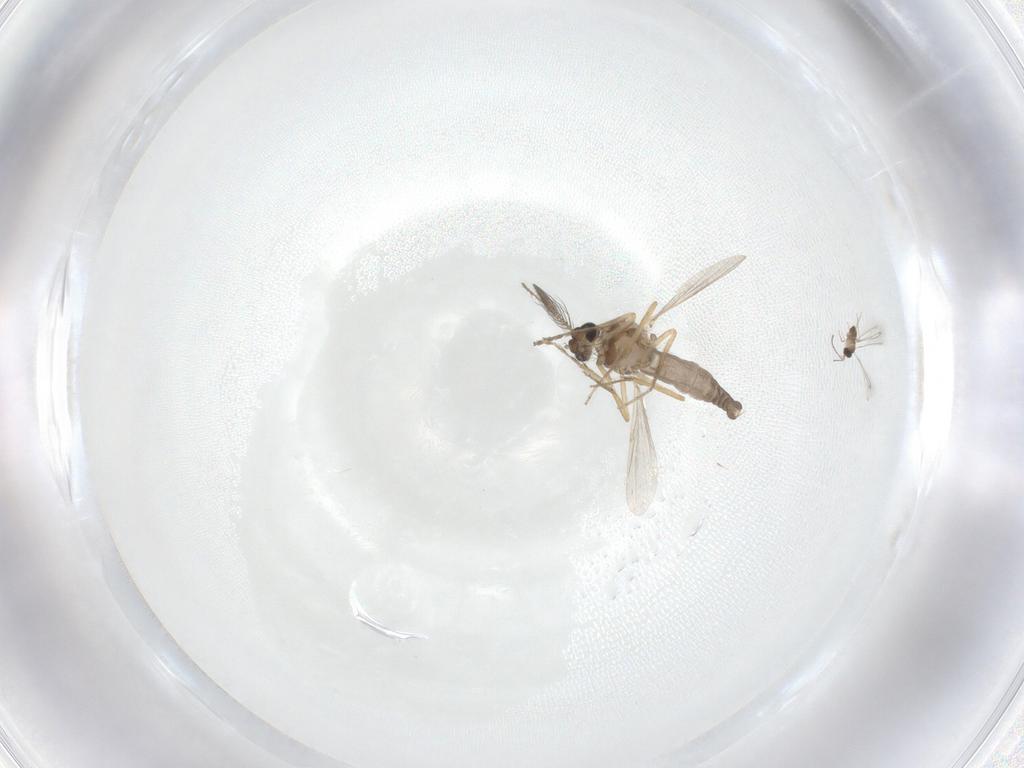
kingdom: Animalia
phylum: Arthropoda
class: Insecta
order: Diptera
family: Ceratopogonidae
